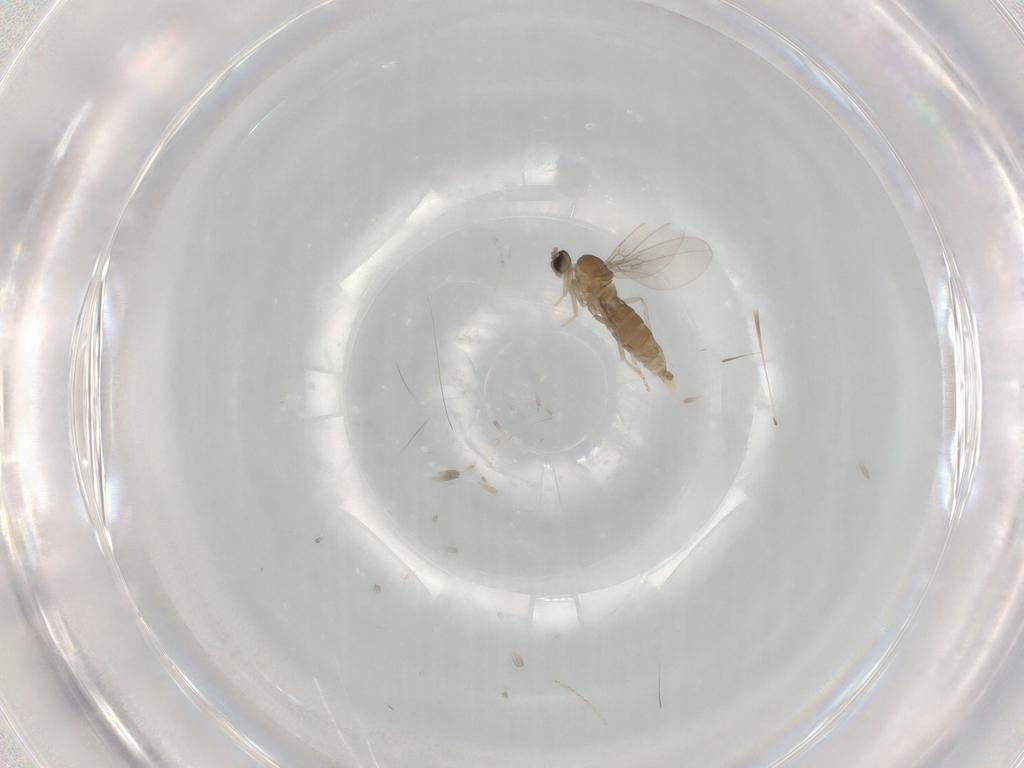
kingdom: Animalia
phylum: Arthropoda
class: Insecta
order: Diptera
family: Cecidomyiidae
